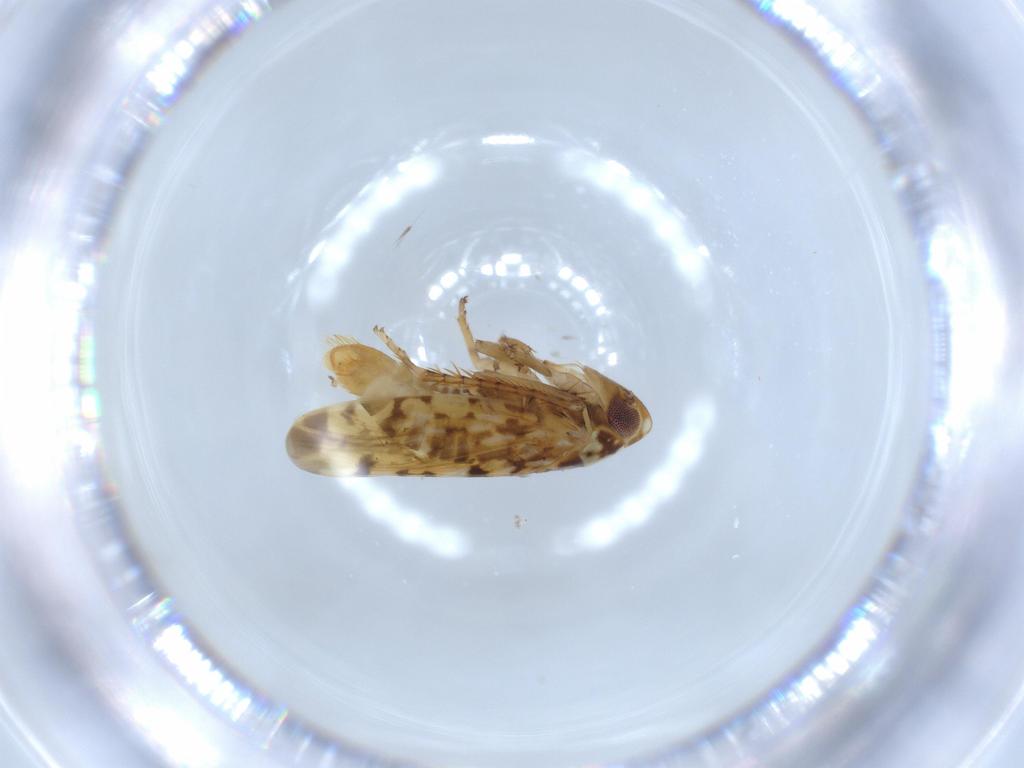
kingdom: Animalia
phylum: Arthropoda
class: Insecta
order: Hemiptera
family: Cicadellidae
